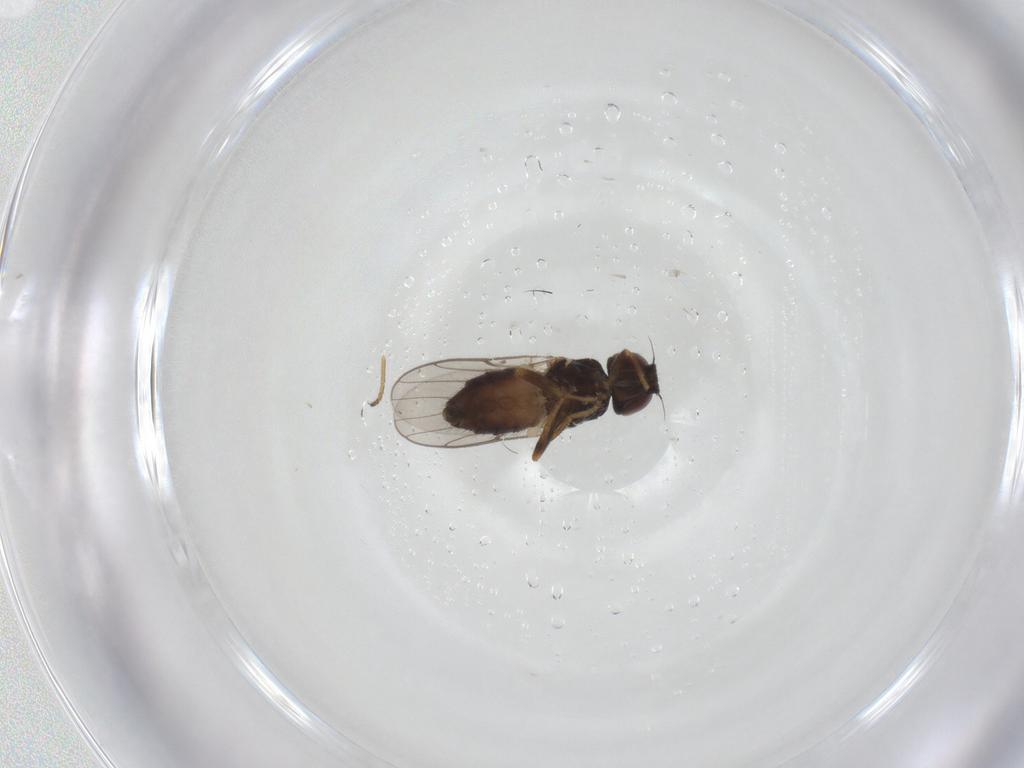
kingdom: Animalia
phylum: Arthropoda
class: Insecta
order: Diptera
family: Chloropidae
